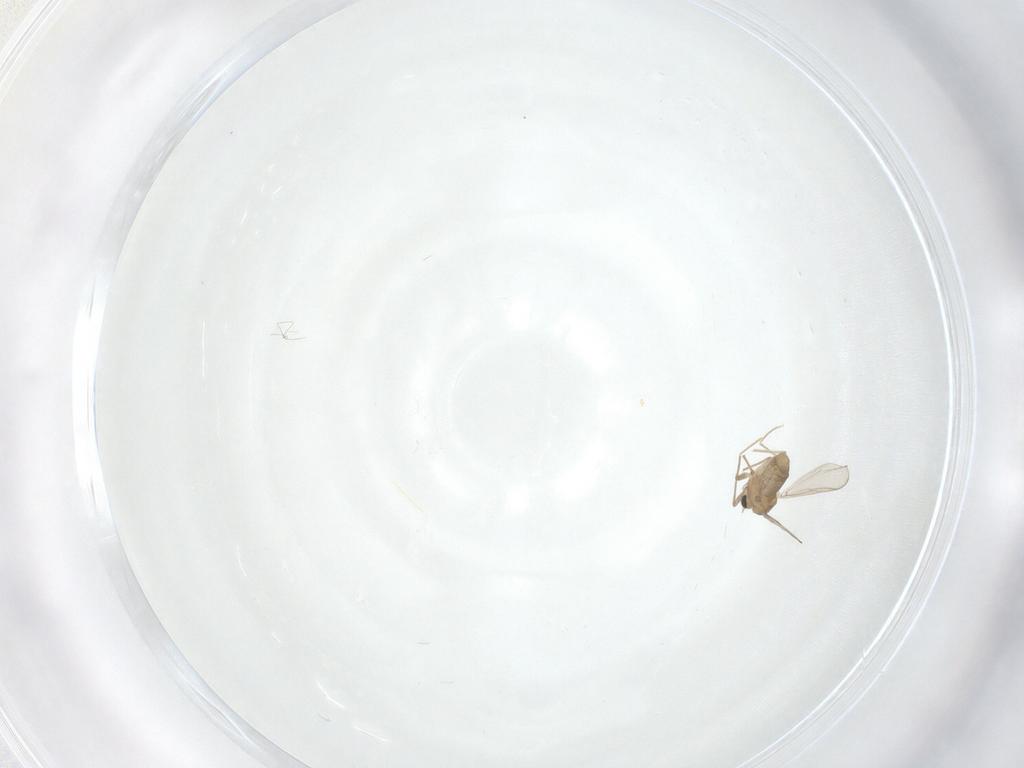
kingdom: Animalia
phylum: Arthropoda
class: Insecta
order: Diptera
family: Chironomidae
